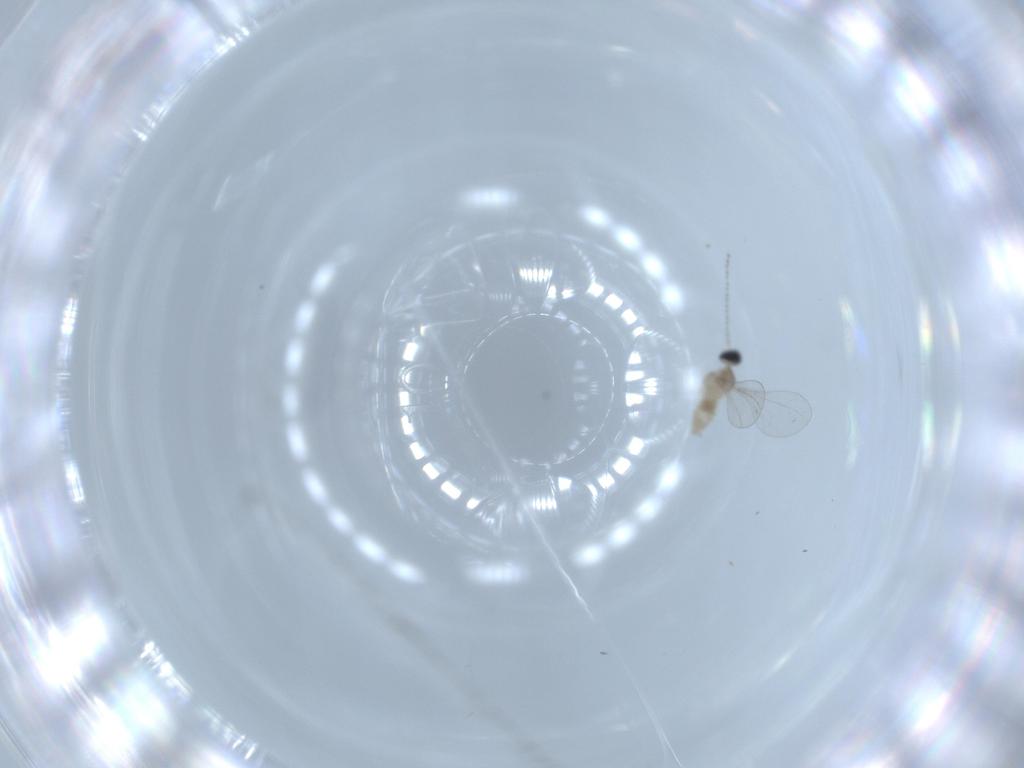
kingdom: Animalia
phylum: Arthropoda
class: Insecta
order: Diptera
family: Cecidomyiidae
